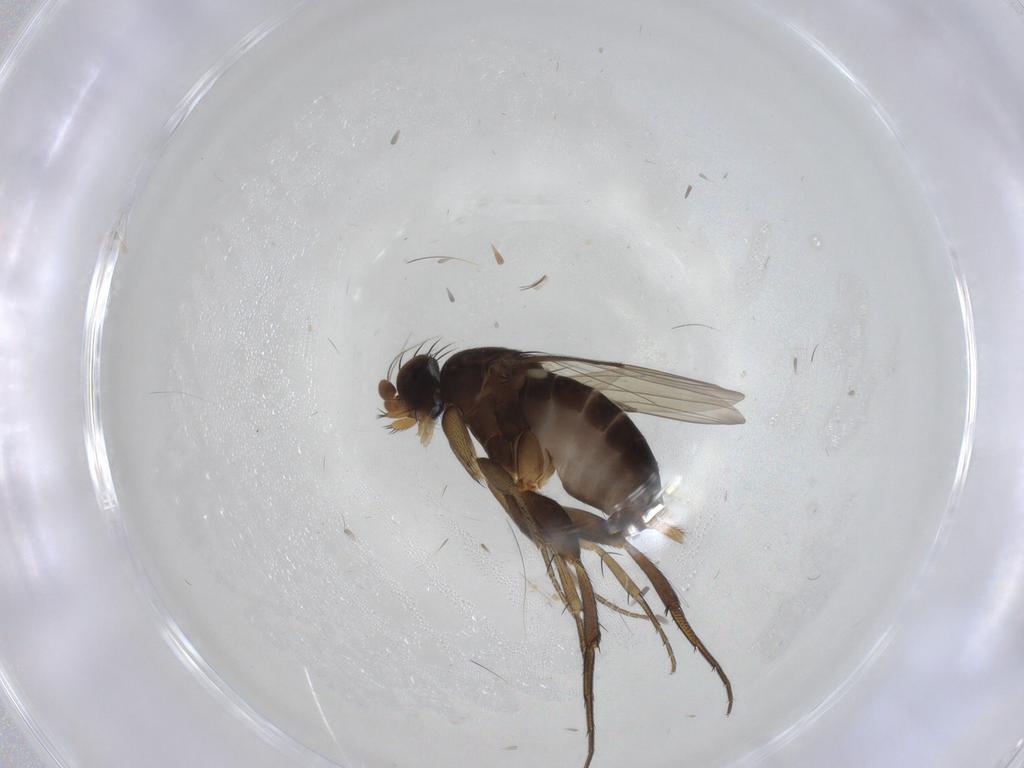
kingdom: Animalia
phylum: Arthropoda
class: Insecta
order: Diptera
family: Phoridae
